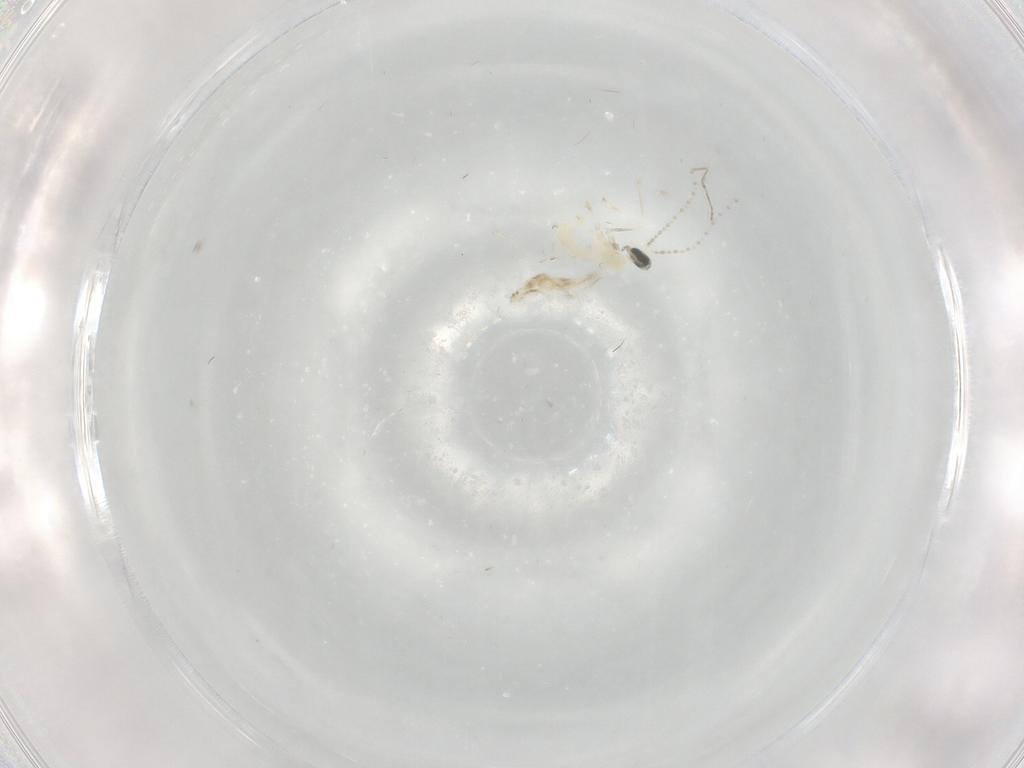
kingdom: Animalia
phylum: Arthropoda
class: Insecta
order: Diptera
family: Cecidomyiidae
